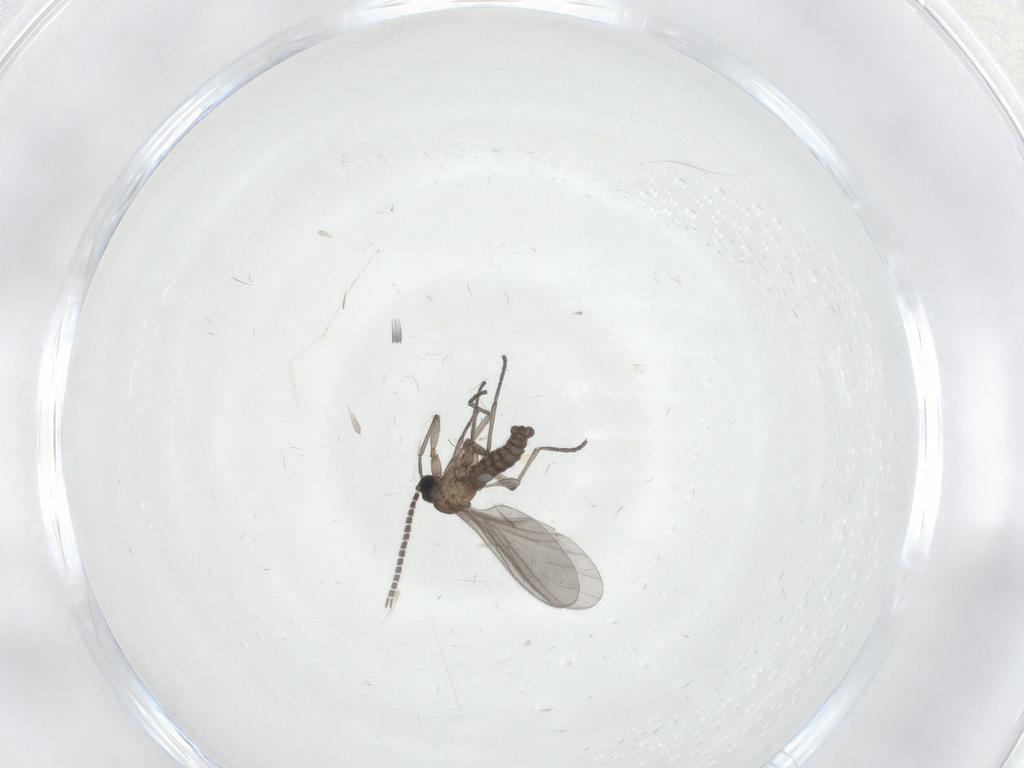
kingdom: Animalia
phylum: Arthropoda
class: Insecta
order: Diptera
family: Sciaridae
